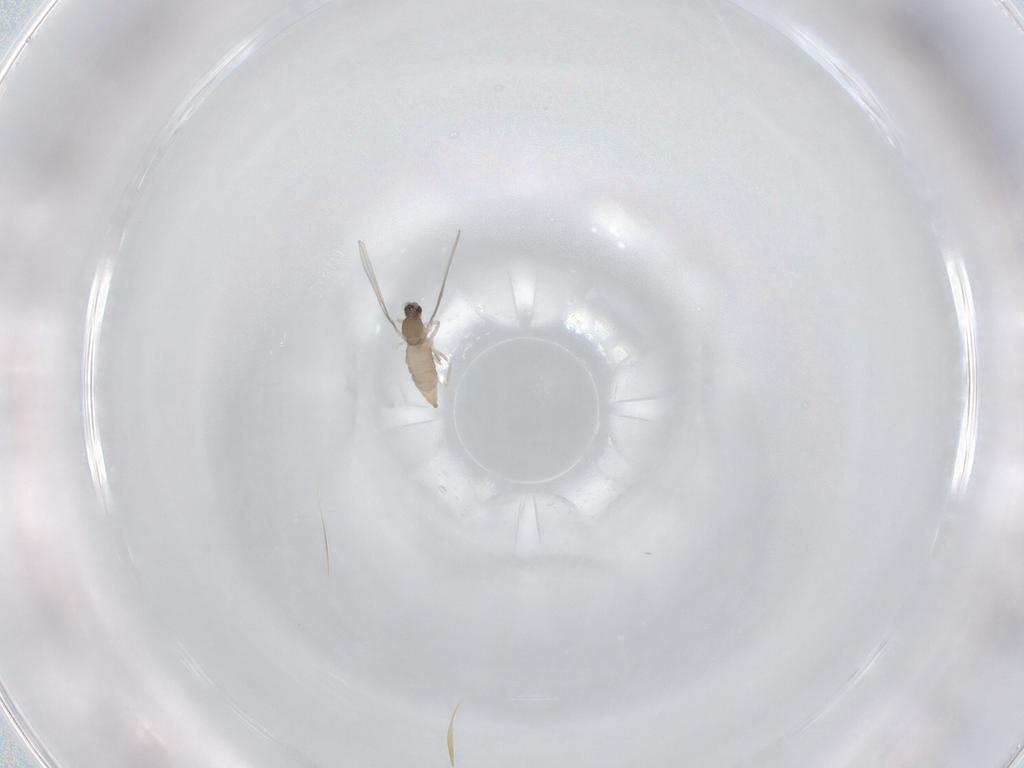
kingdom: Animalia
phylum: Arthropoda
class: Insecta
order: Diptera
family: Cecidomyiidae
